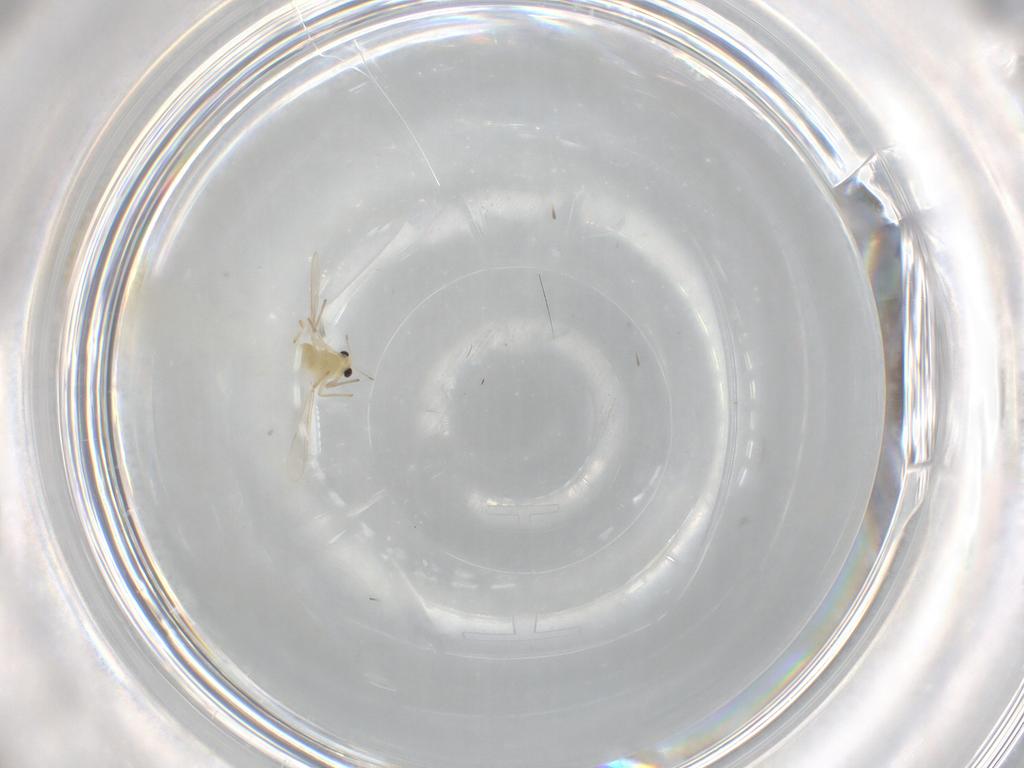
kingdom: Animalia
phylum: Arthropoda
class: Insecta
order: Diptera
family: Chironomidae
